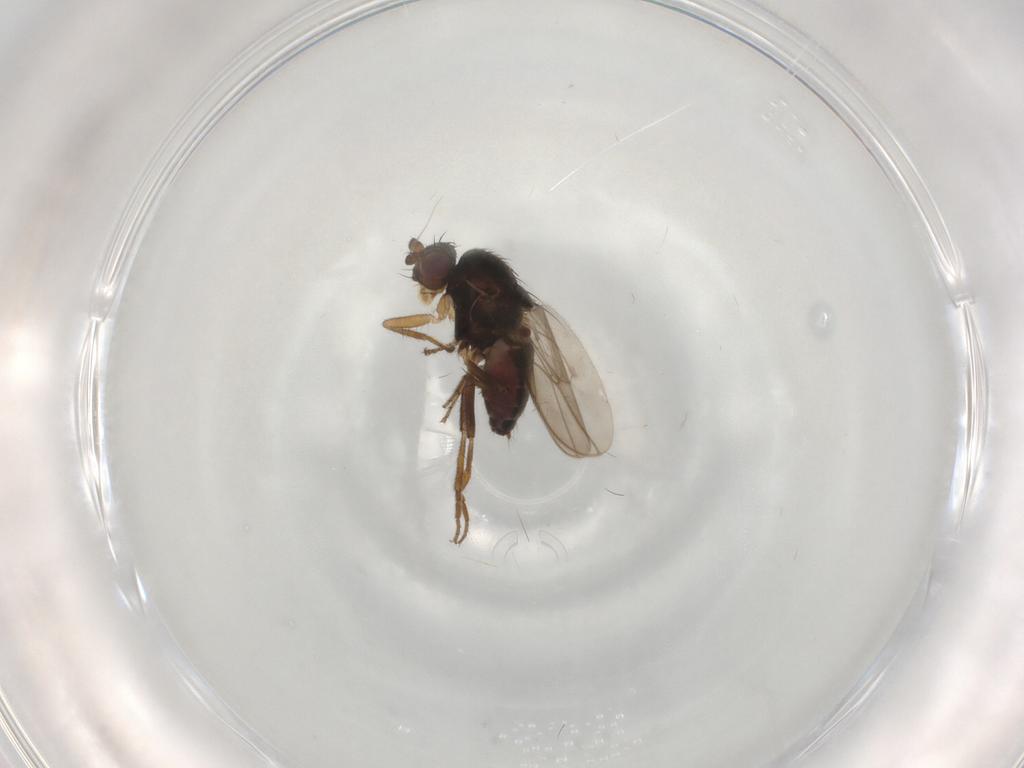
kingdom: Animalia
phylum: Arthropoda
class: Insecta
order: Diptera
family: Sphaeroceridae
